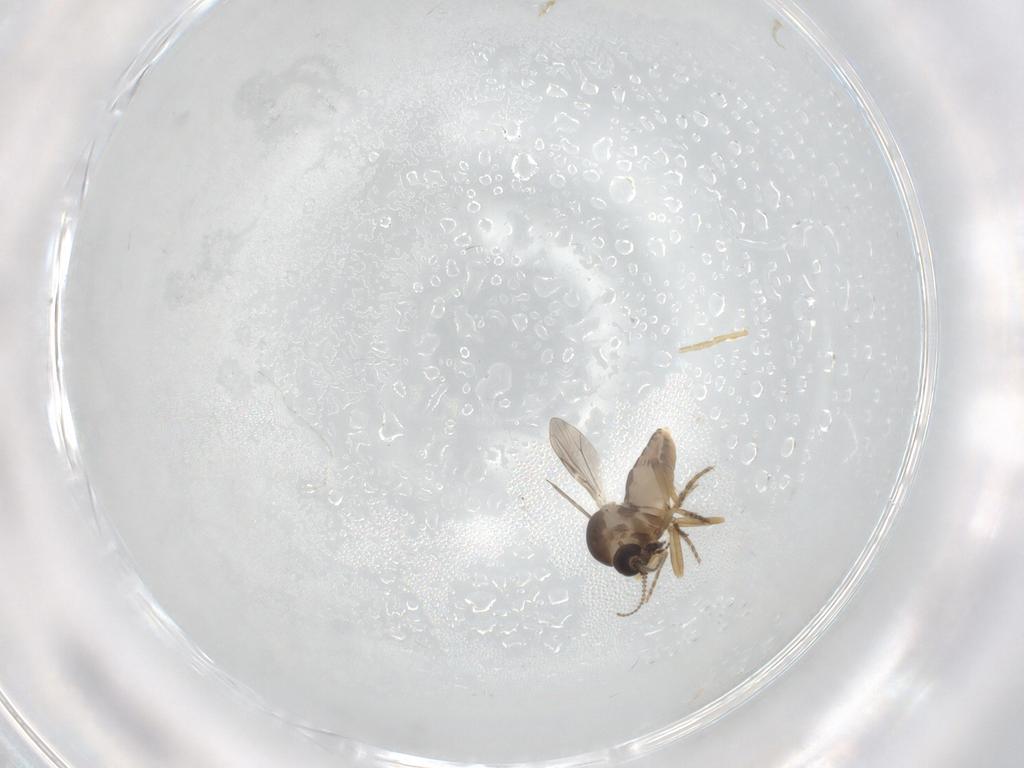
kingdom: Animalia
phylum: Arthropoda
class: Insecta
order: Diptera
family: Ceratopogonidae
